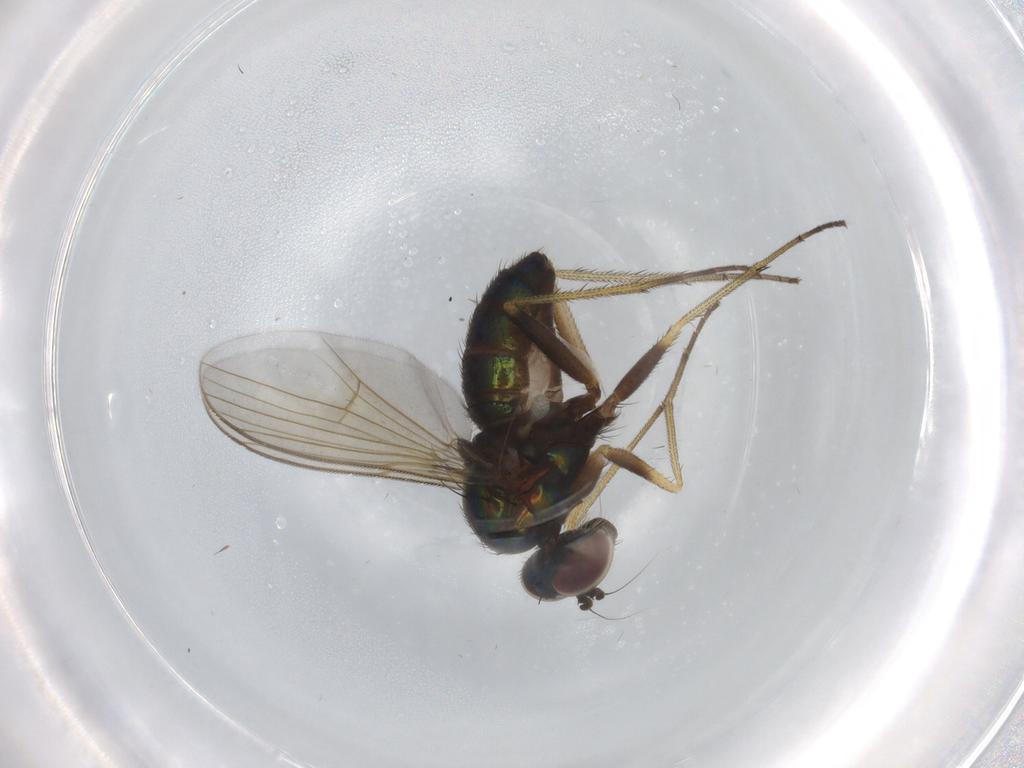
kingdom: Animalia
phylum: Arthropoda
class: Insecta
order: Diptera
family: Dolichopodidae
